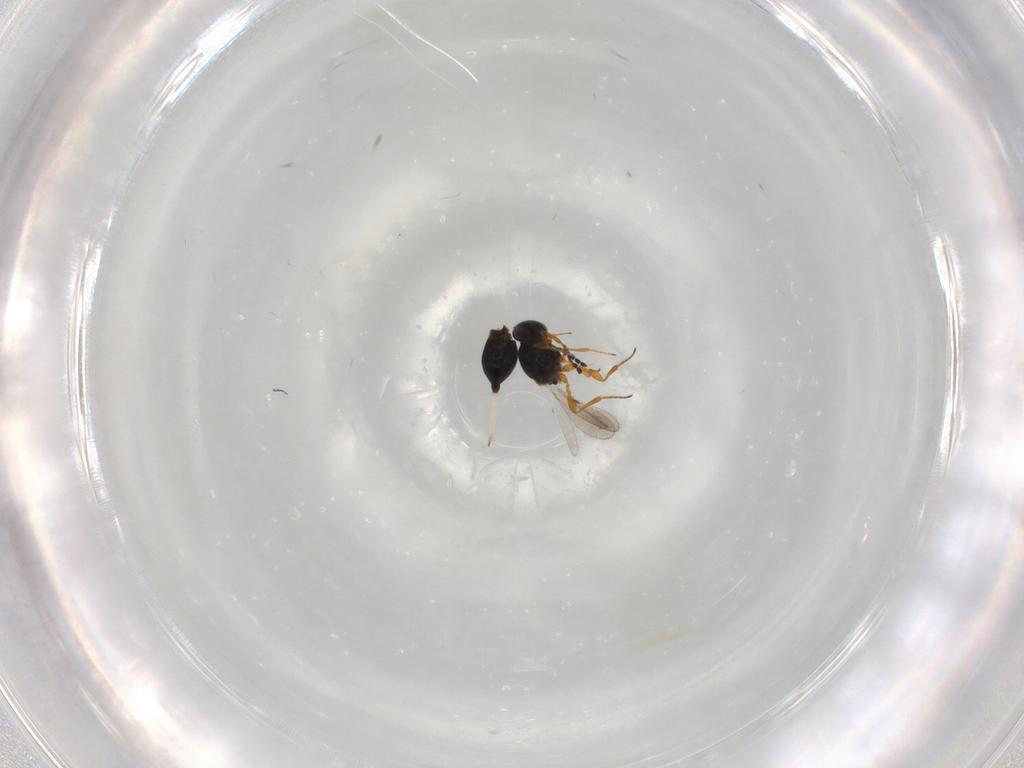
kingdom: Animalia
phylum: Arthropoda
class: Insecta
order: Hymenoptera
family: Platygastridae
